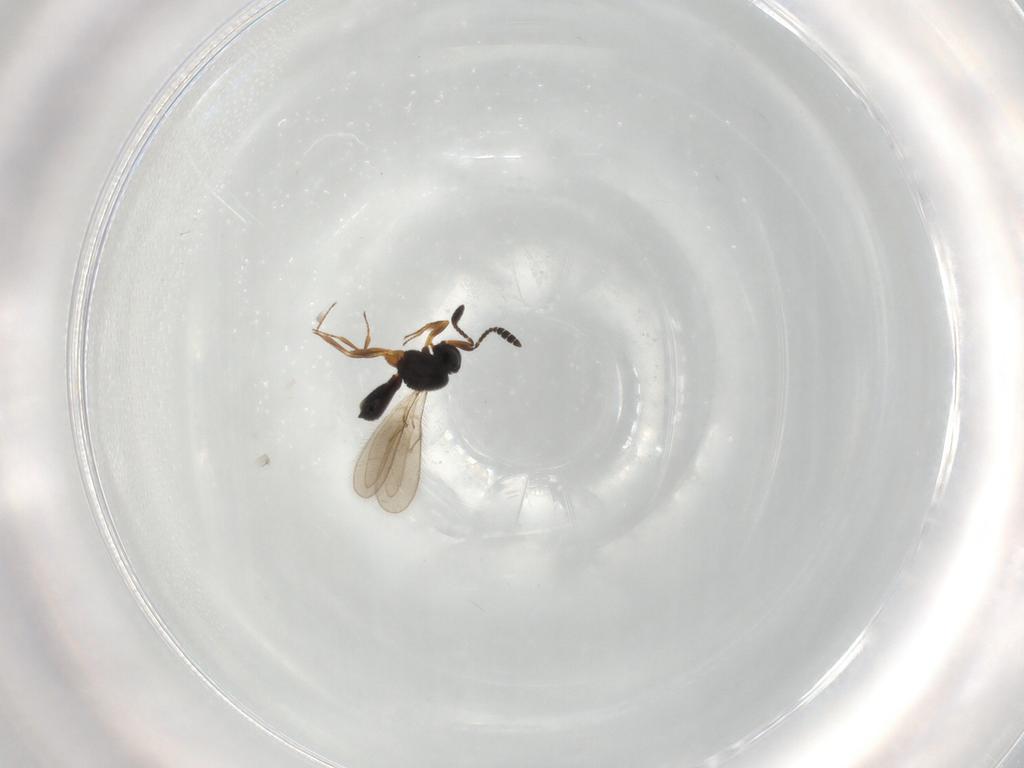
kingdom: Animalia
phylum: Arthropoda
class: Insecta
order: Hymenoptera
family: Scelionidae
